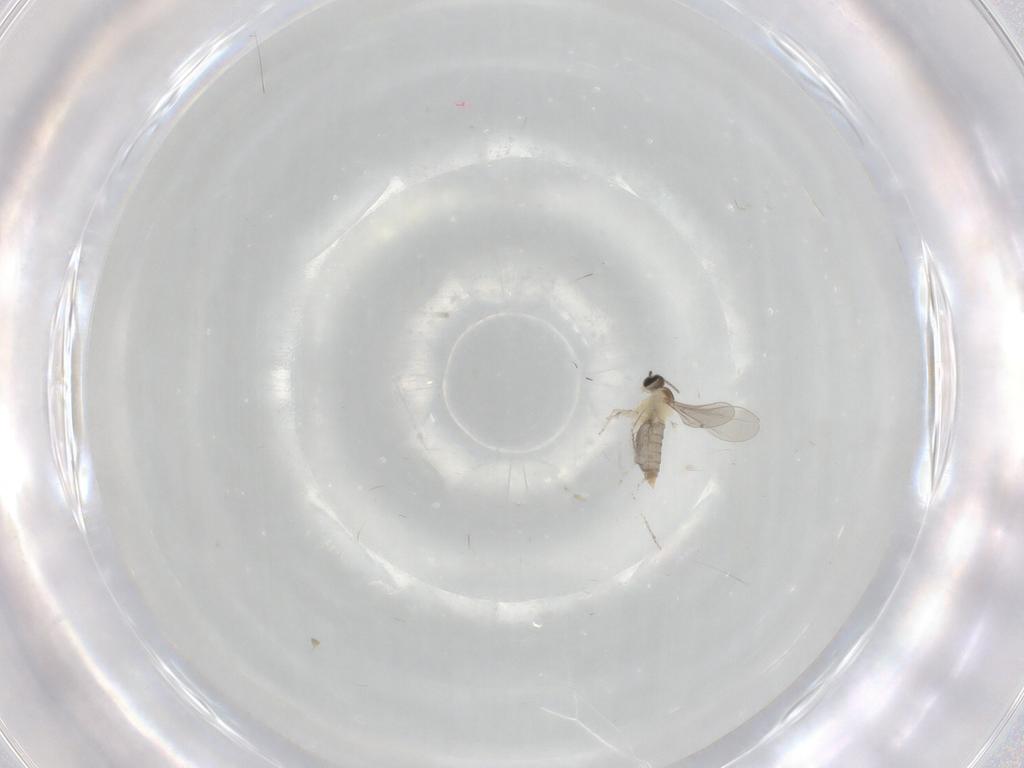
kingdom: Animalia
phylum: Arthropoda
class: Insecta
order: Diptera
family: Cecidomyiidae
